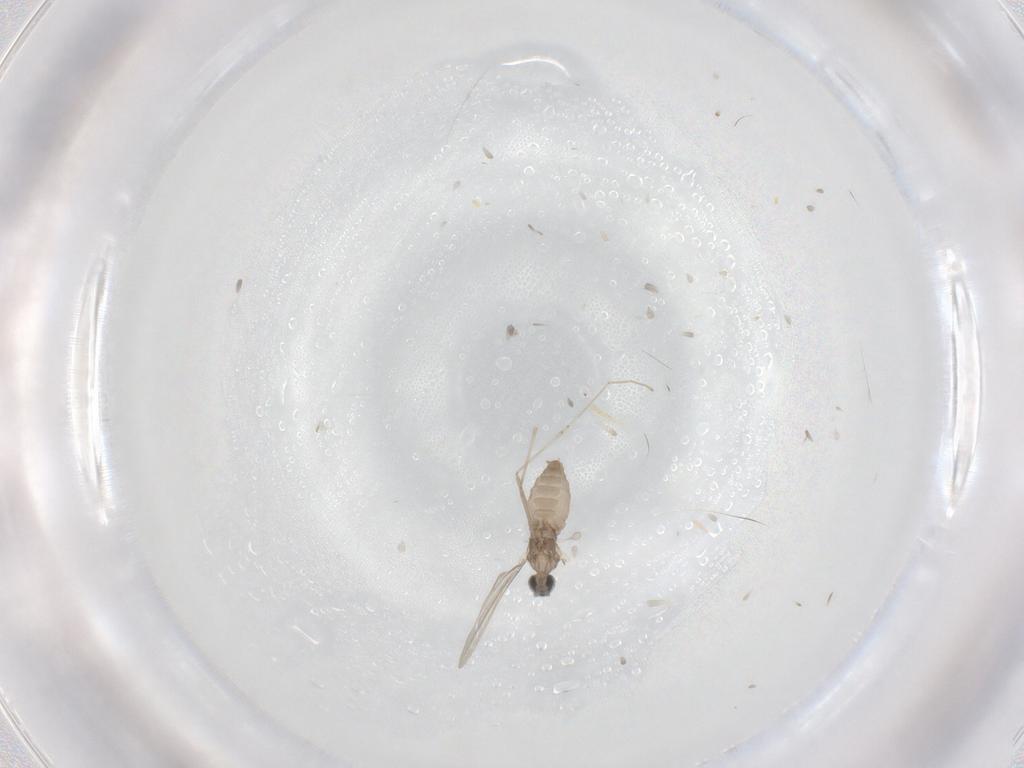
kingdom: Animalia
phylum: Arthropoda
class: Insecta
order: Diptera
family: Cecidomyiidae
